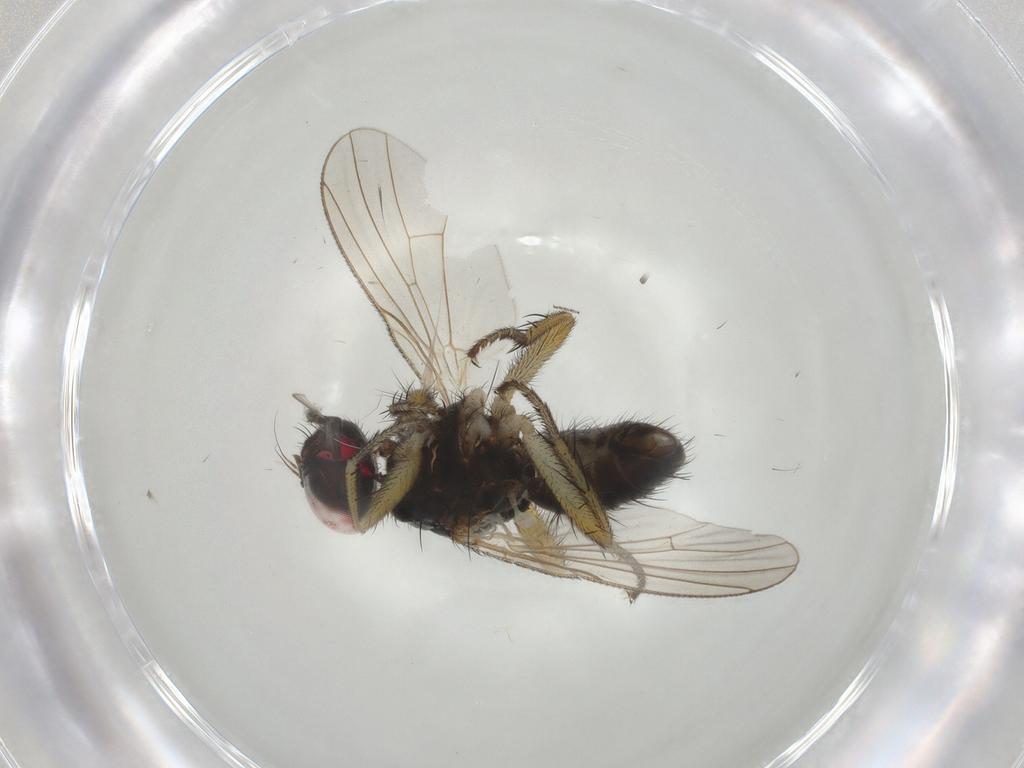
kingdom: Animalia
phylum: Arthropoda
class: Insecta
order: Diptera
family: Muscidae
